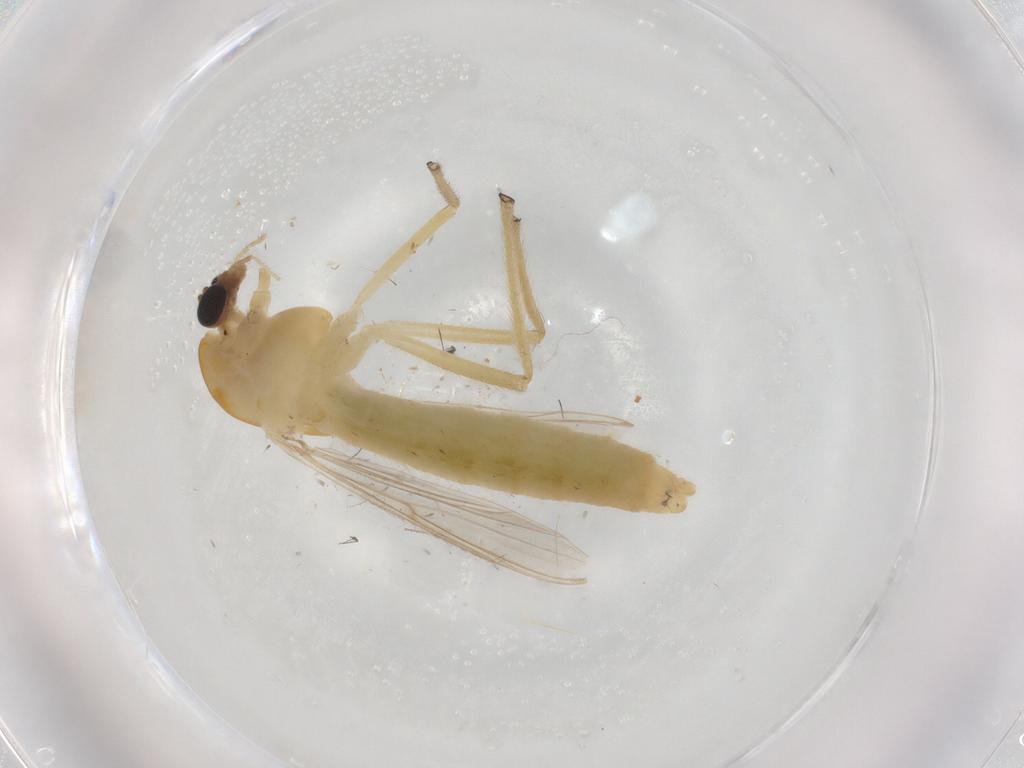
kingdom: Animalia
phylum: Arthropoda
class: Insecta
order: Diptera
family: Chironomidae
